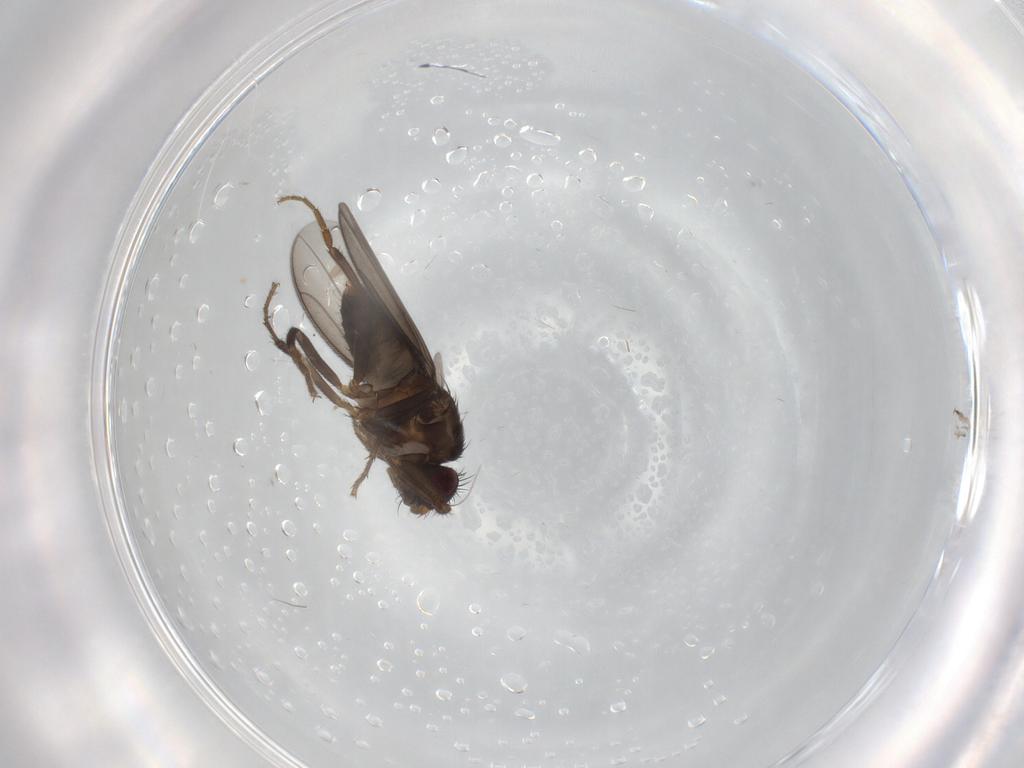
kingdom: Animalia
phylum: Arthropoda
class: Insecta
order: Diptera
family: Sphaeroceridae
